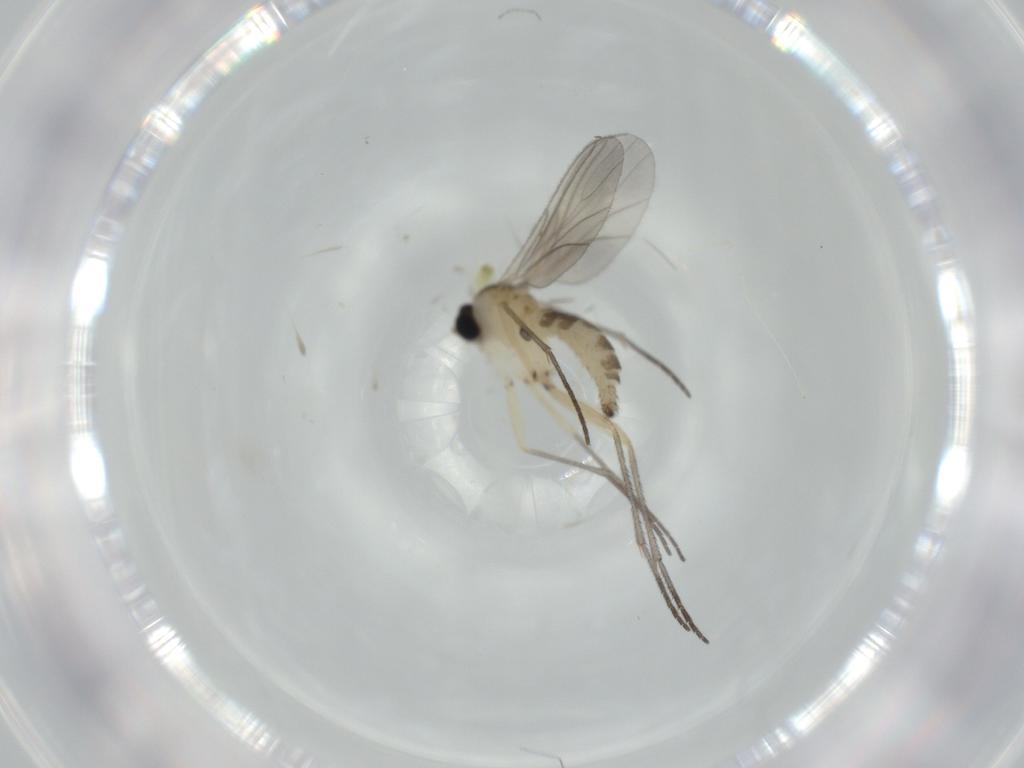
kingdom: Animalia
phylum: Arthropoda
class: Insecta
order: Diptera
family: Sciaridae
